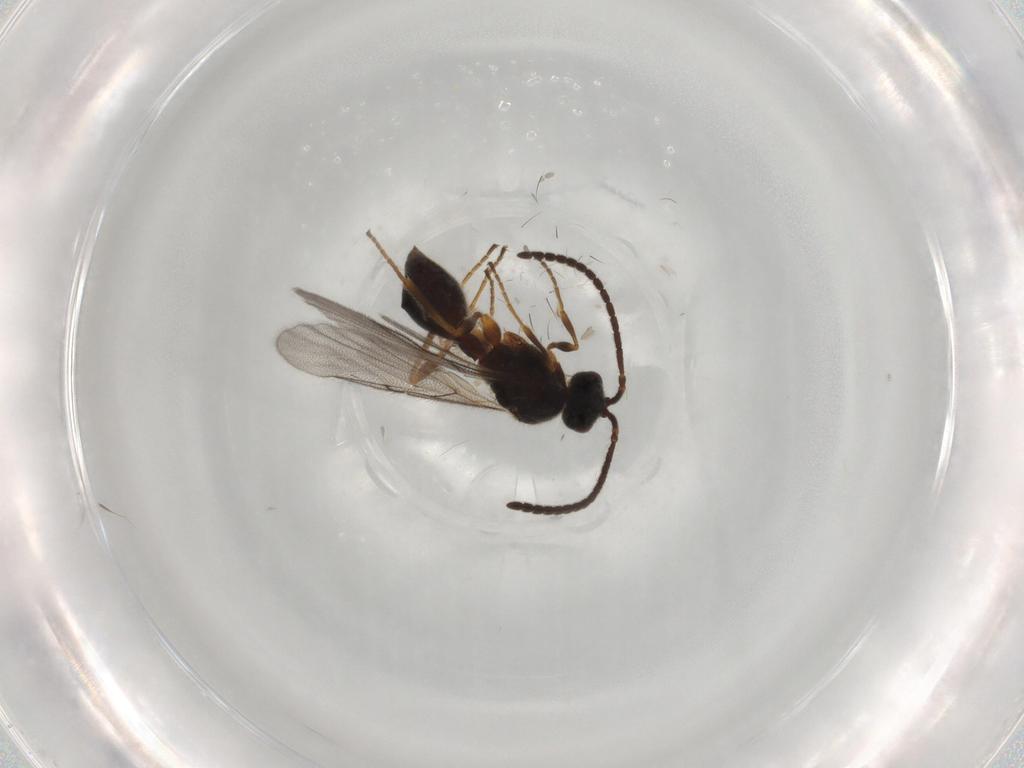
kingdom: Animalia
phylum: Arthropoda
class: Insecta
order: Hymenoptera
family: Diapriidae
